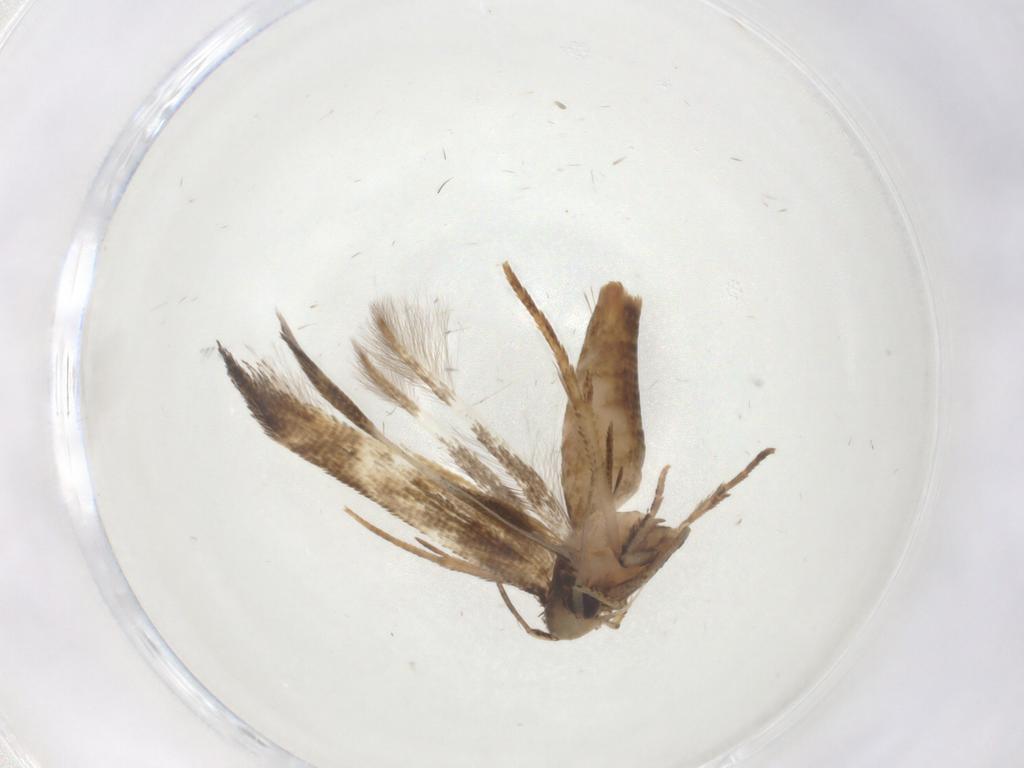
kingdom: Animalia
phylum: Arthropoda
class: Insecta
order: Lepidoptera
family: Cosmopterigidae
